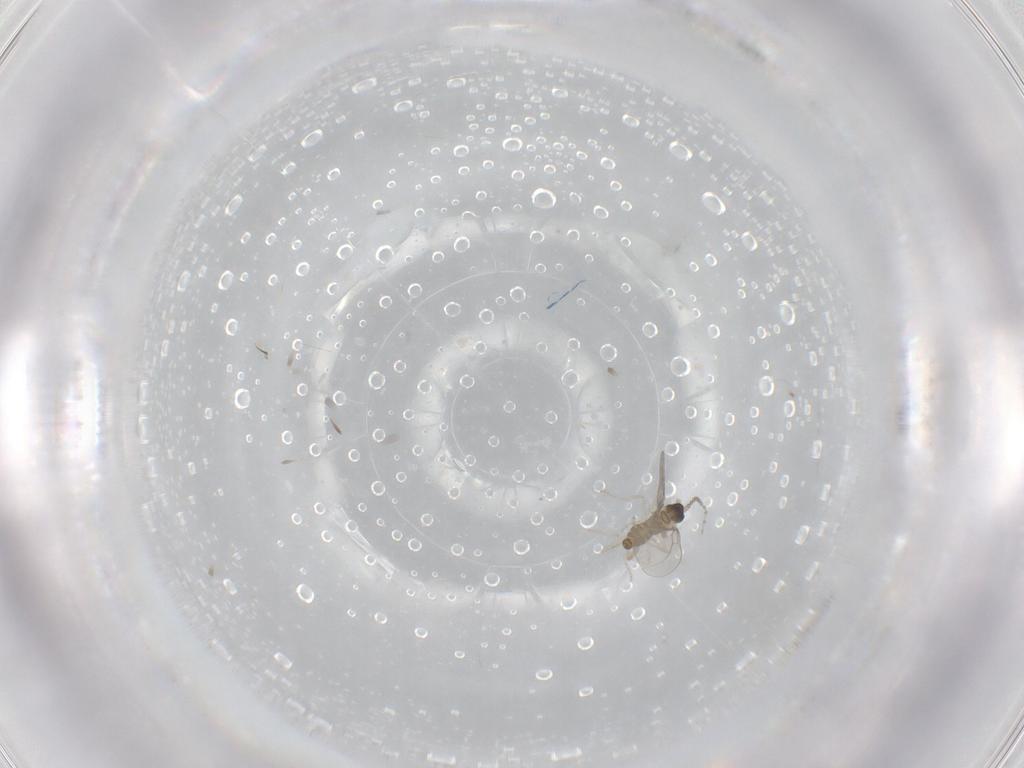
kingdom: Animalia
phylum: Arthropoda
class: Insecta
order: Diptera
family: Cecidomyiidae
